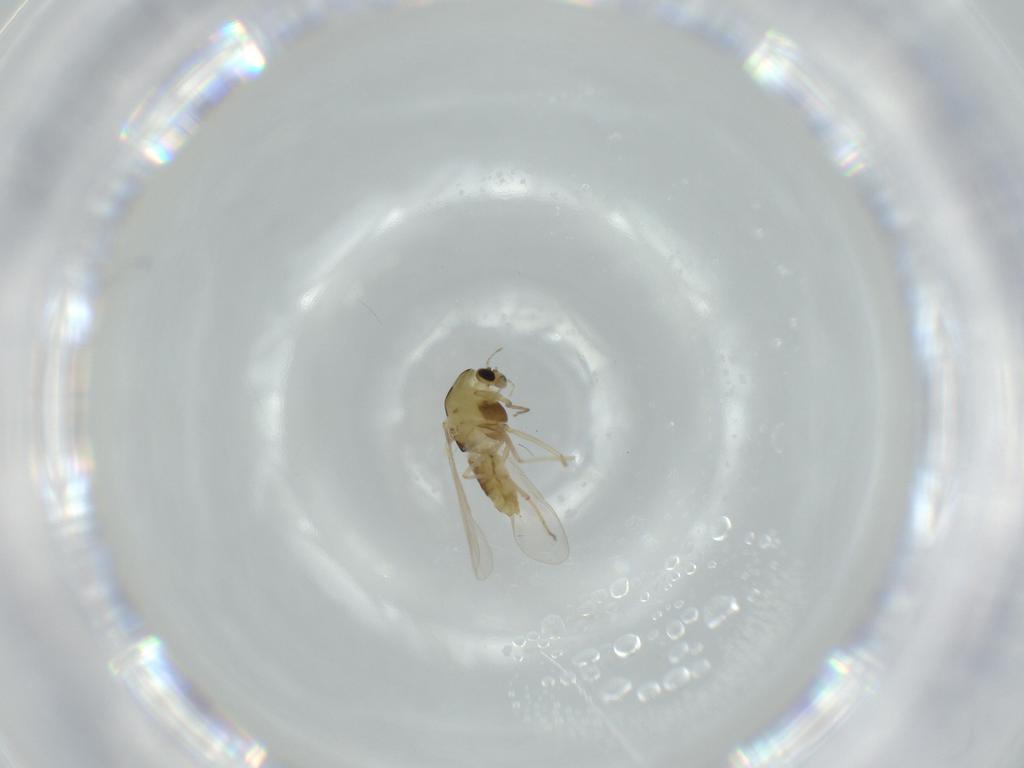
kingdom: Animalia
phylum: Arthropoda
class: Insecta
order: Diptera
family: Chironomidae
